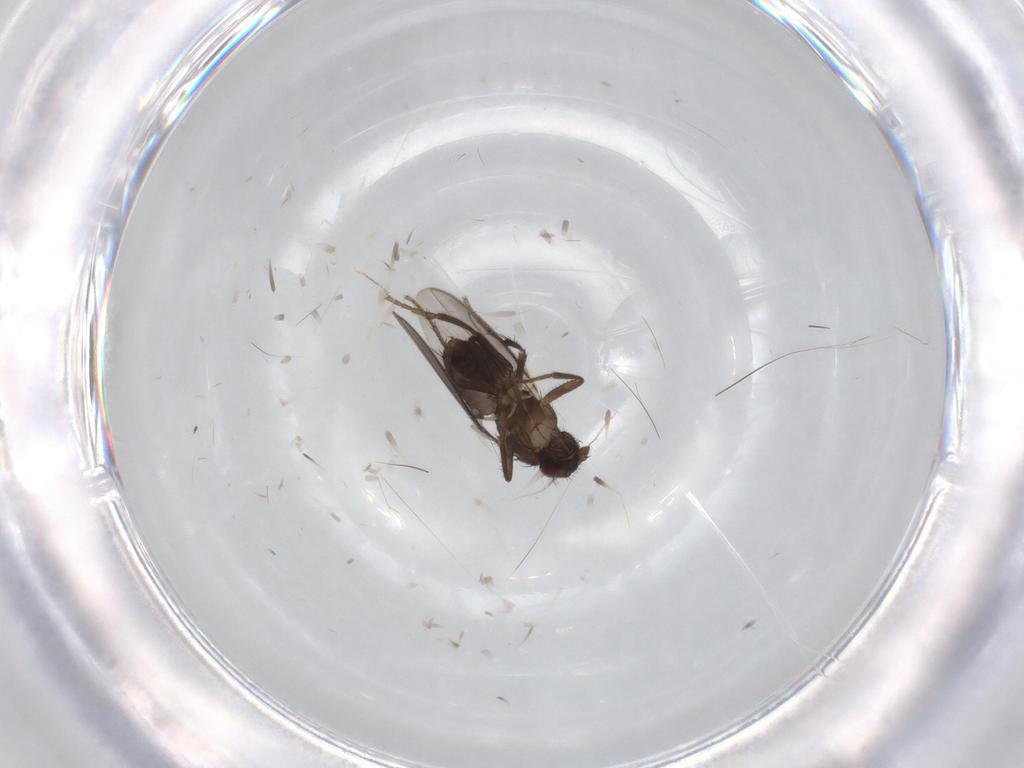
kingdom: Animalia
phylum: Arthropoda
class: Insecta
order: Diptera
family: Sphaeroceridae
